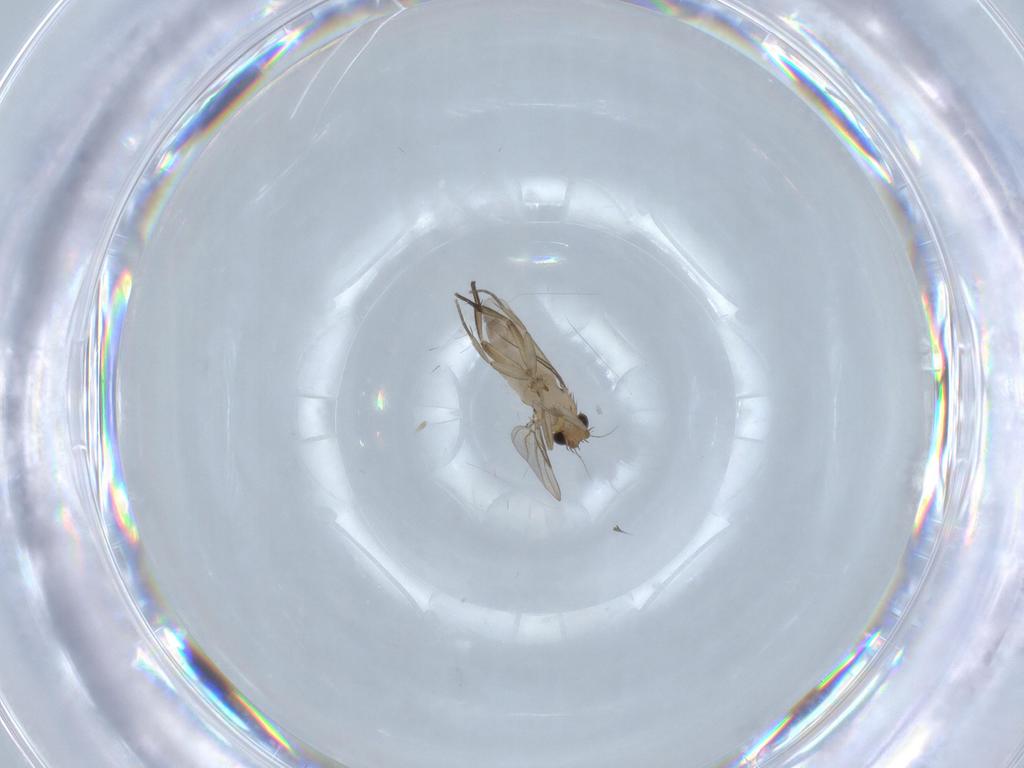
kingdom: Animalia
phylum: Arthropoda
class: Insecta
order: Diptera
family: Phoridae
